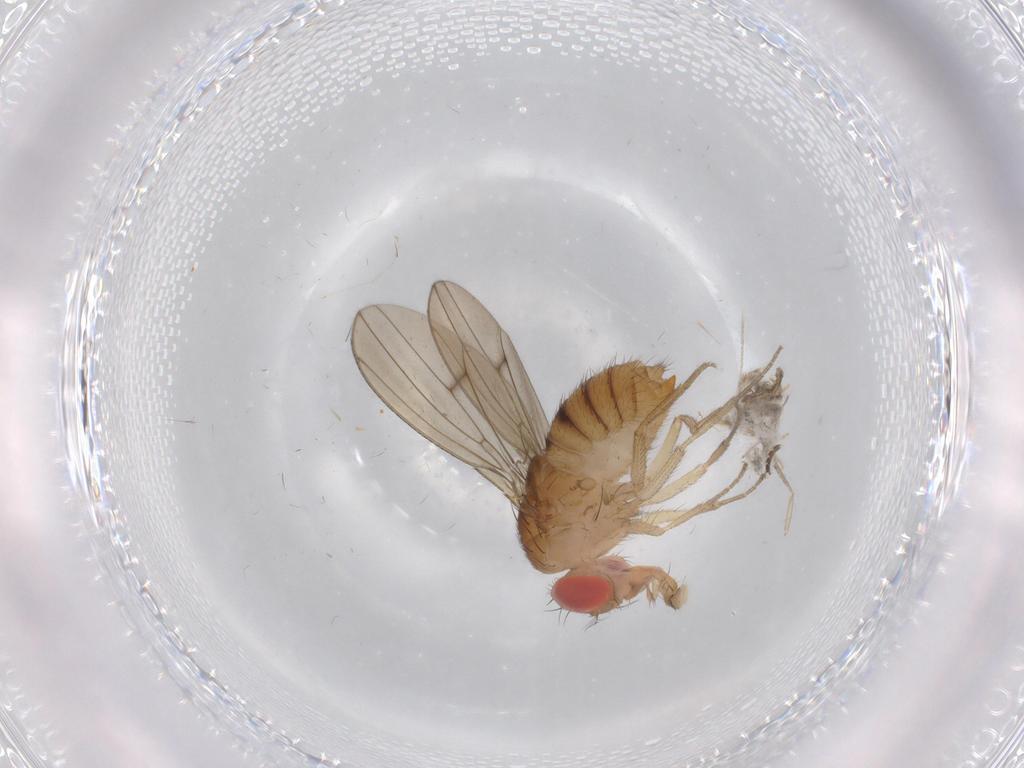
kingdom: Animalia
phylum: Arthropoda
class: Insecta
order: Diptera
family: Drosophilidae
